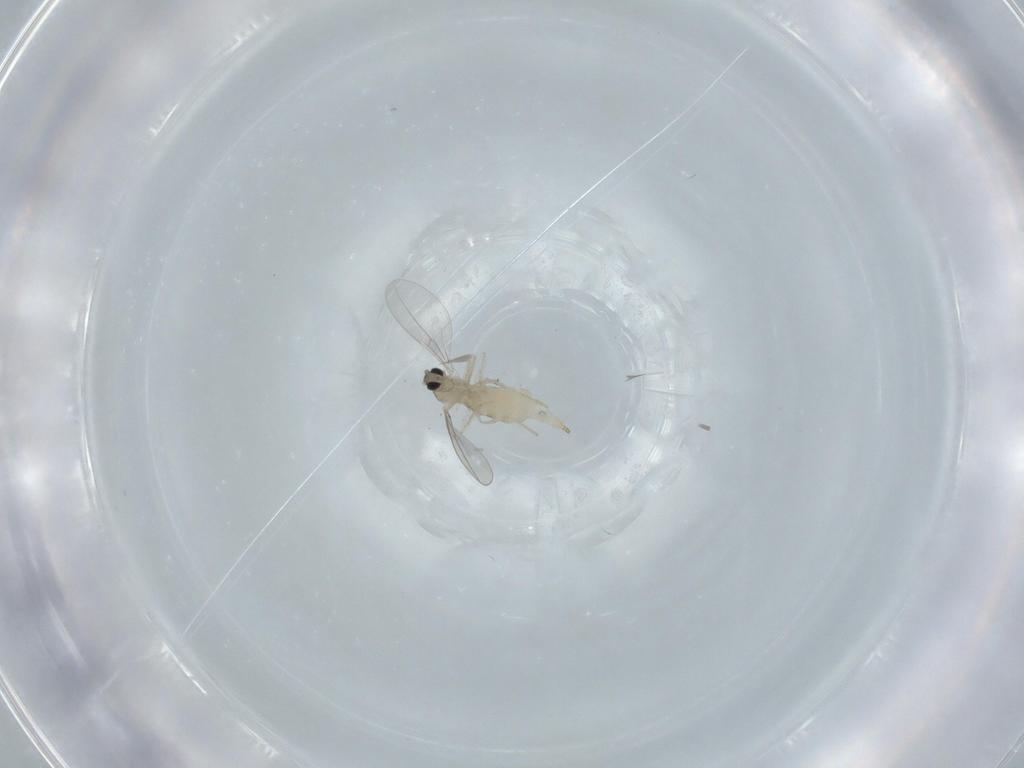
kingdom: Animalia
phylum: Arthropoda
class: Insecta
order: Diptera
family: Cecidomyiidae
